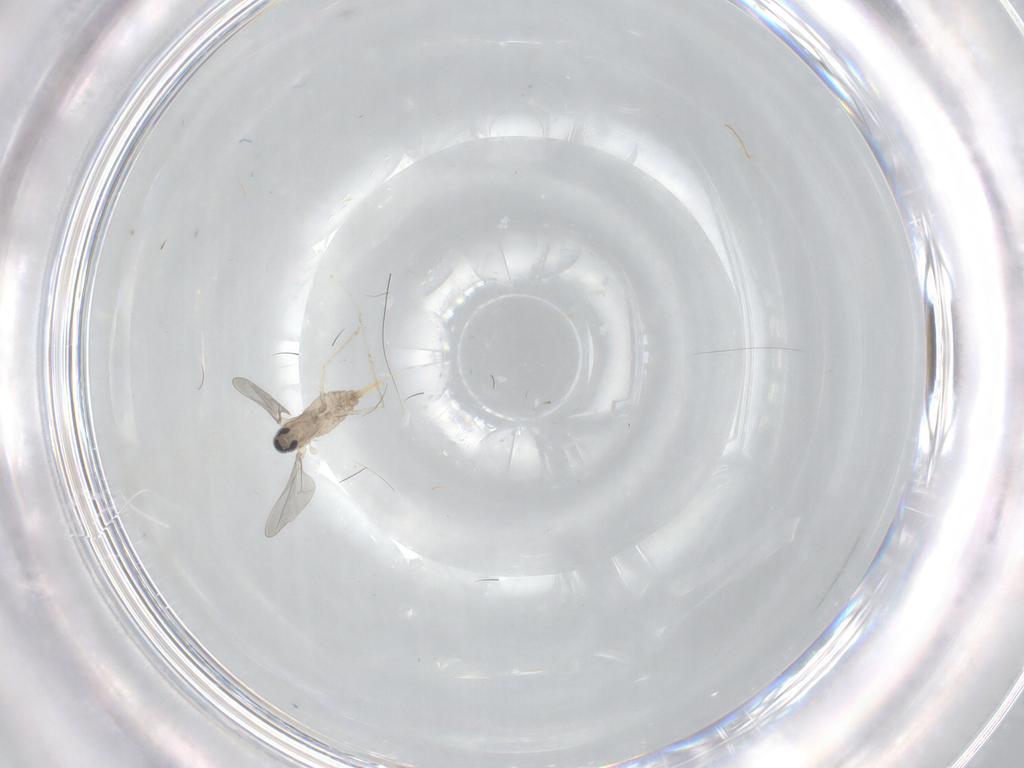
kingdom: Animalia
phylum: Arthropoda
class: Insecta
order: Diptera
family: Cecidomyiidae
